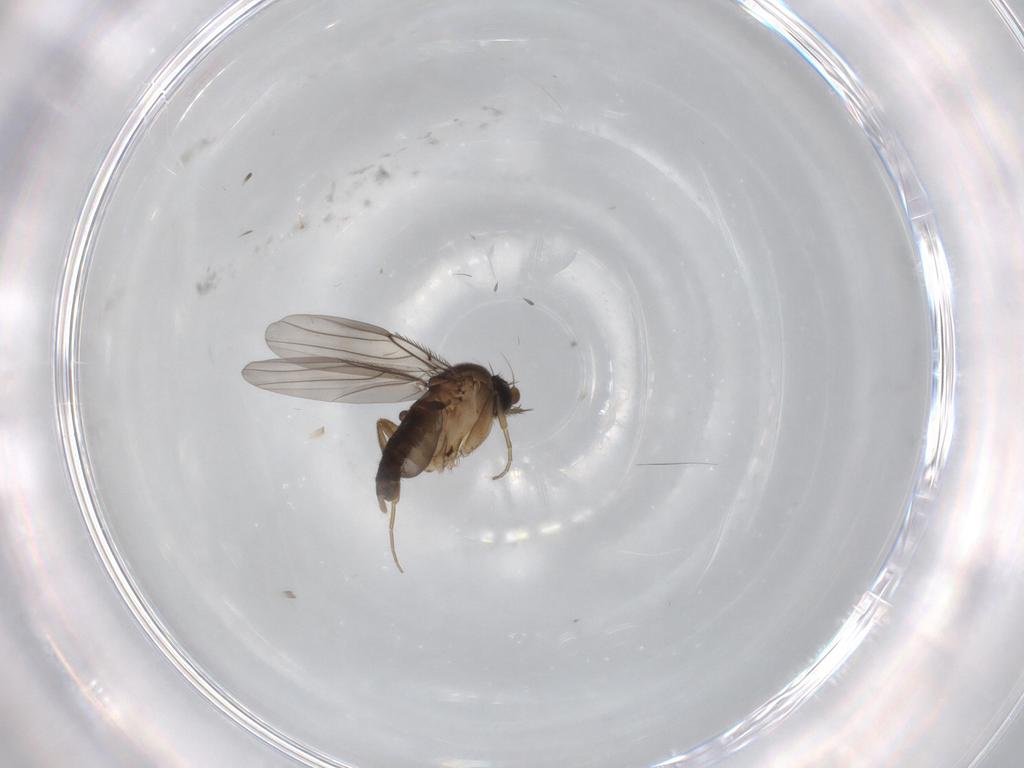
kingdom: Animalia
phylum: Arthropoda
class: Insecta
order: Diptera
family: Phoridae
